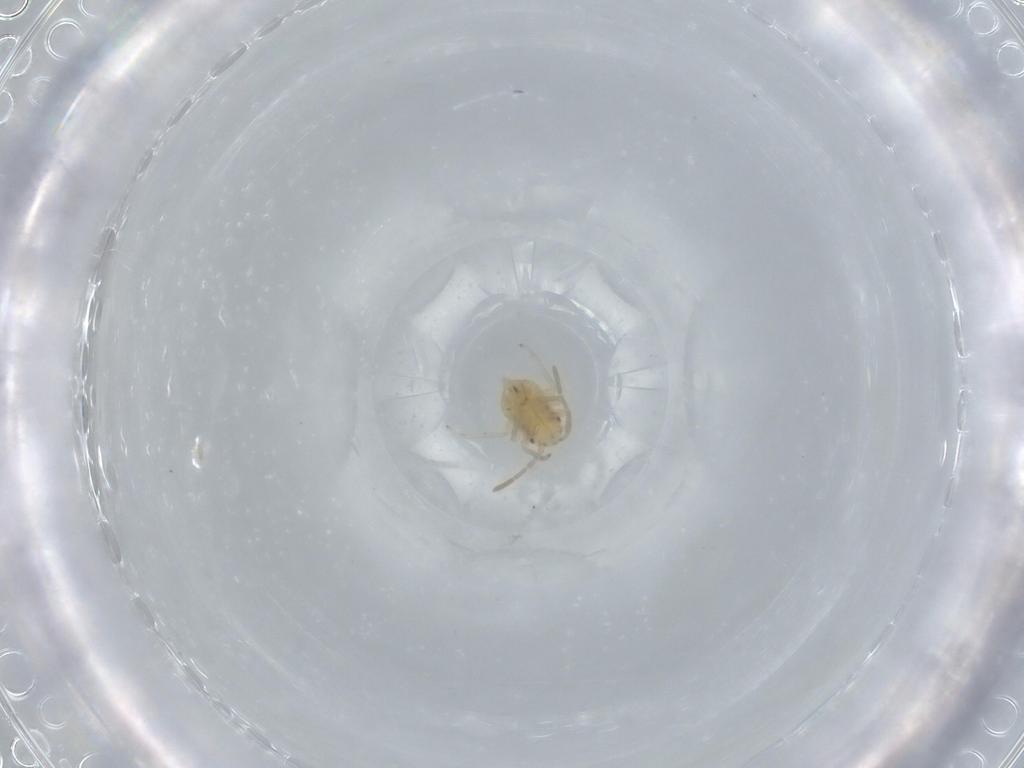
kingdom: Animalia
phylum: Arthropoda
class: Insecta
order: Hemiptera
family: Miridae
